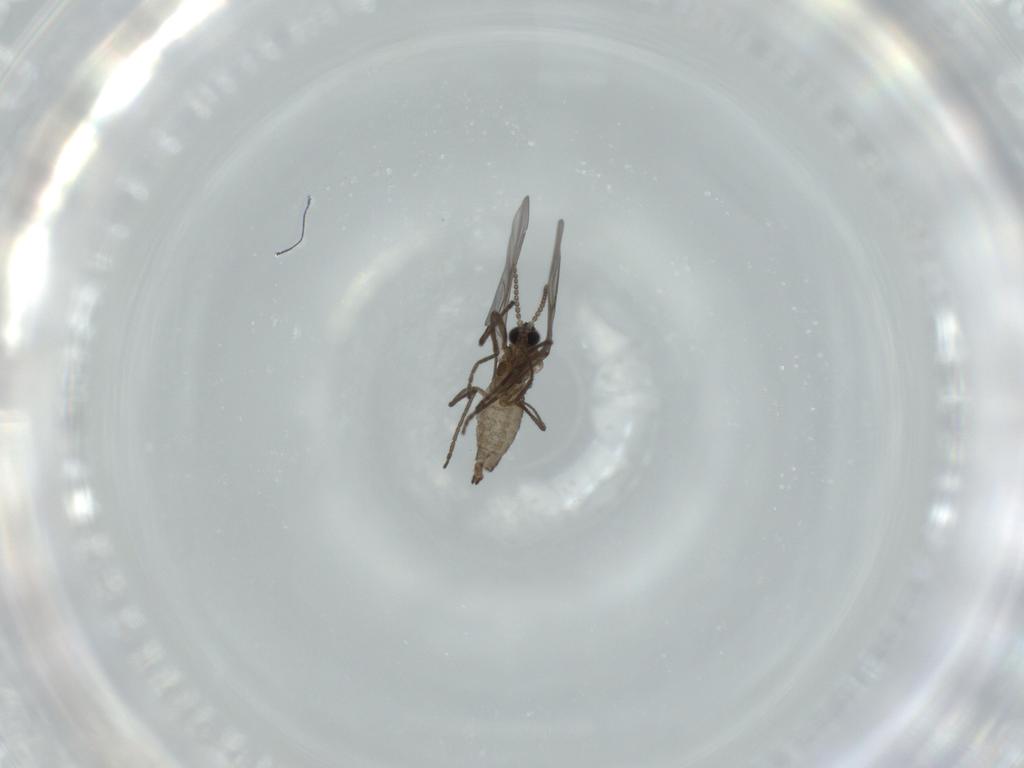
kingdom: Animalia
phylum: Arthropoda
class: Insecta
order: Diptera
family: Cecidomyiidae
